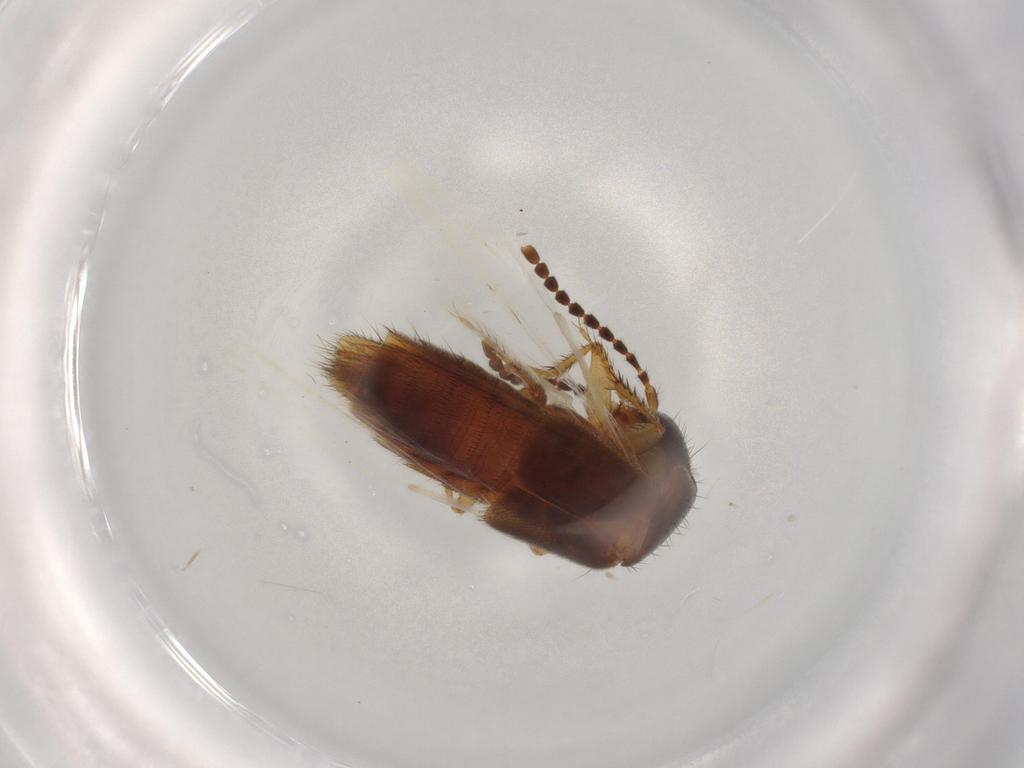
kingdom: Animalia
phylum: Arthropoda
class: Insecta
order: Coleoptera
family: Staphylinidae
